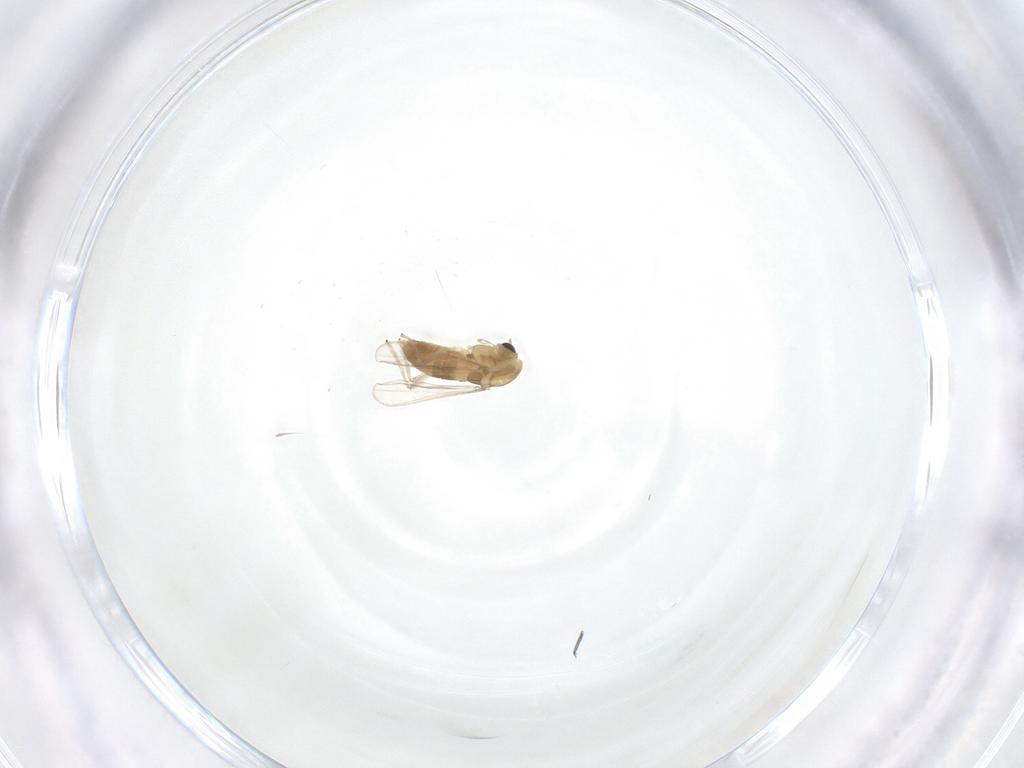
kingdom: Animalia
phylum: Arthropoda
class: Insecta
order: Diptera
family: Chironomidae
